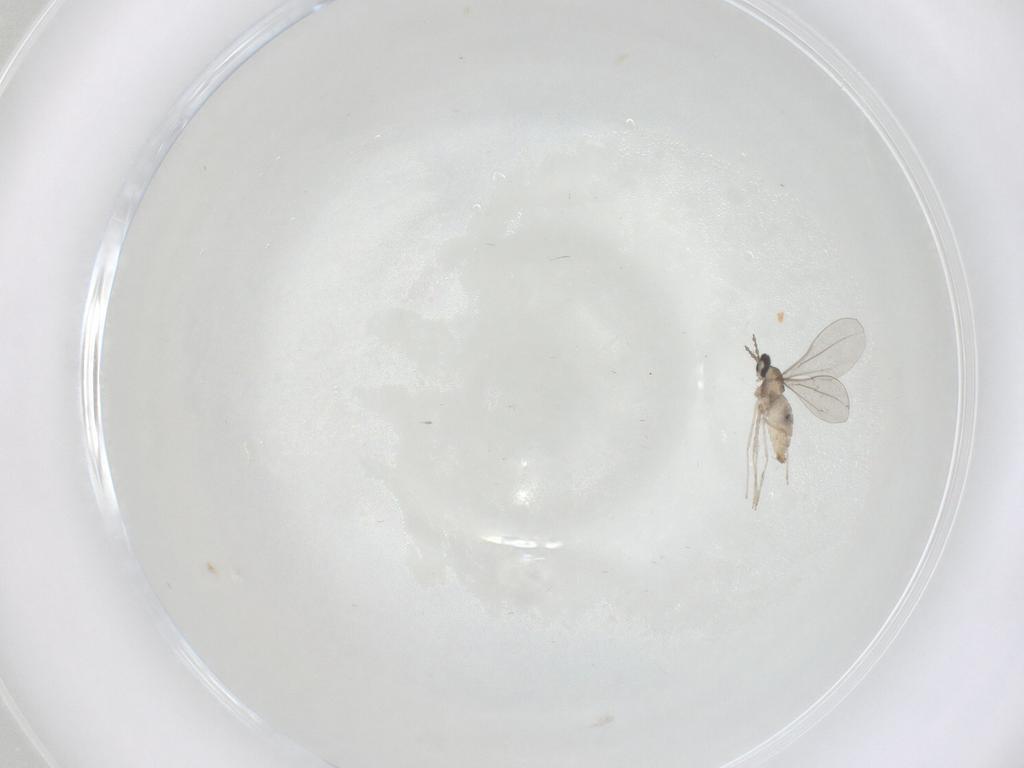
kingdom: Animalia
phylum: Arthropoda
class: Insecta
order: Diptera
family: Cecidomyiidae
